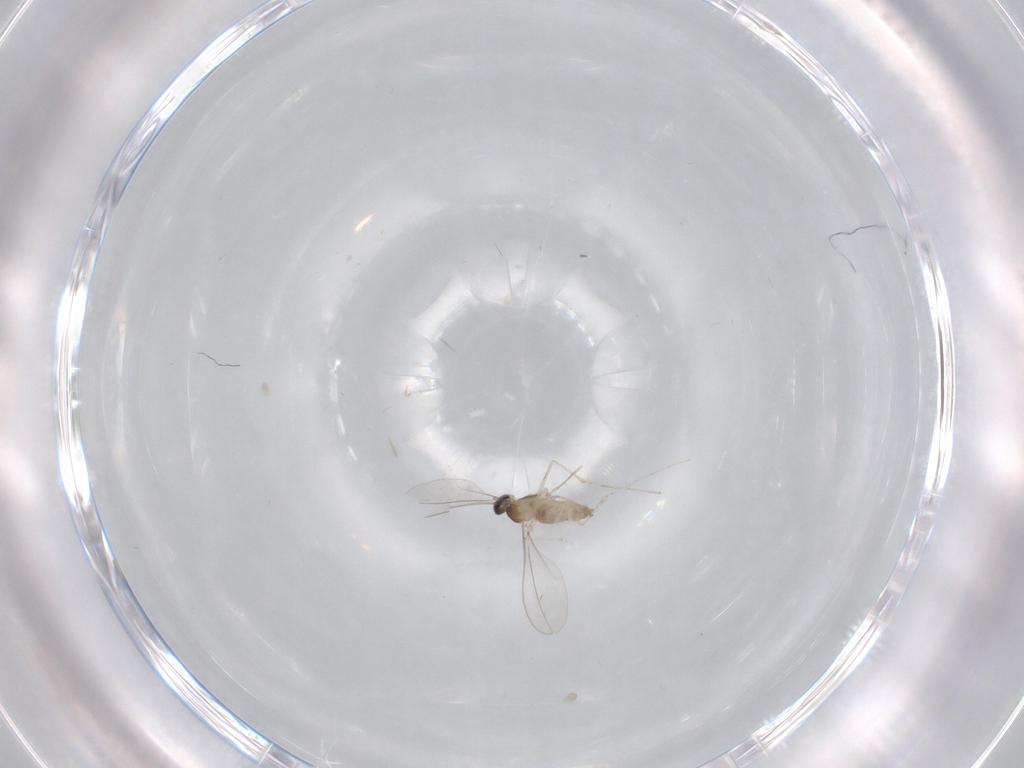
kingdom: Animalia
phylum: Arthropoda
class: Insecta
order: Diptera
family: Cecidomyiidae
